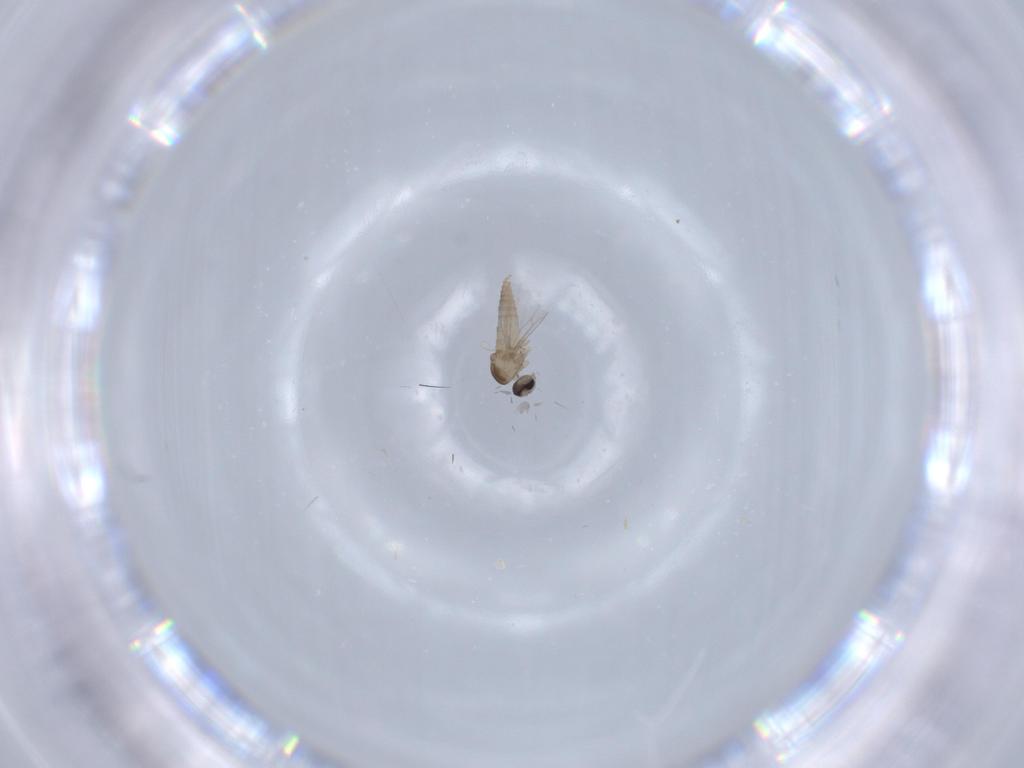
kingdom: Animalia
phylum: Arthropoda
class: Insecta
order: Diptera
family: Cecidomyiidae
